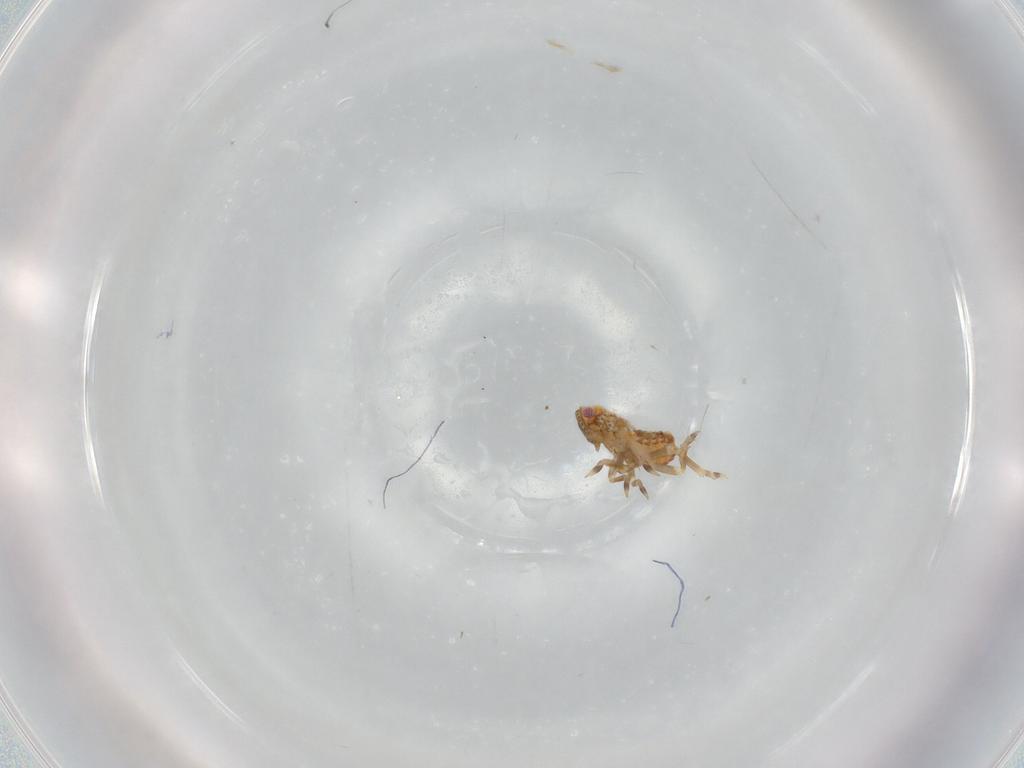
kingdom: Animalia
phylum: Arthropoda
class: Insecta
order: Hemiptera
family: Flatidae
